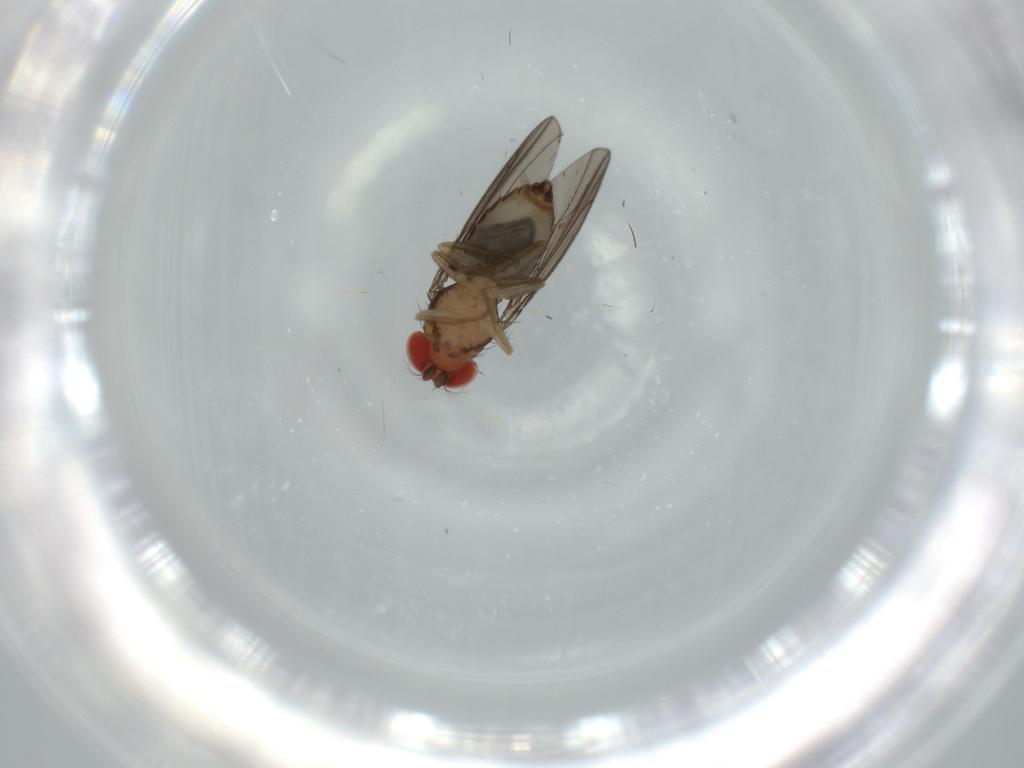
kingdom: Animalia
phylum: Arthropoda
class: Insecta
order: Diptera
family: Drosophilidae
